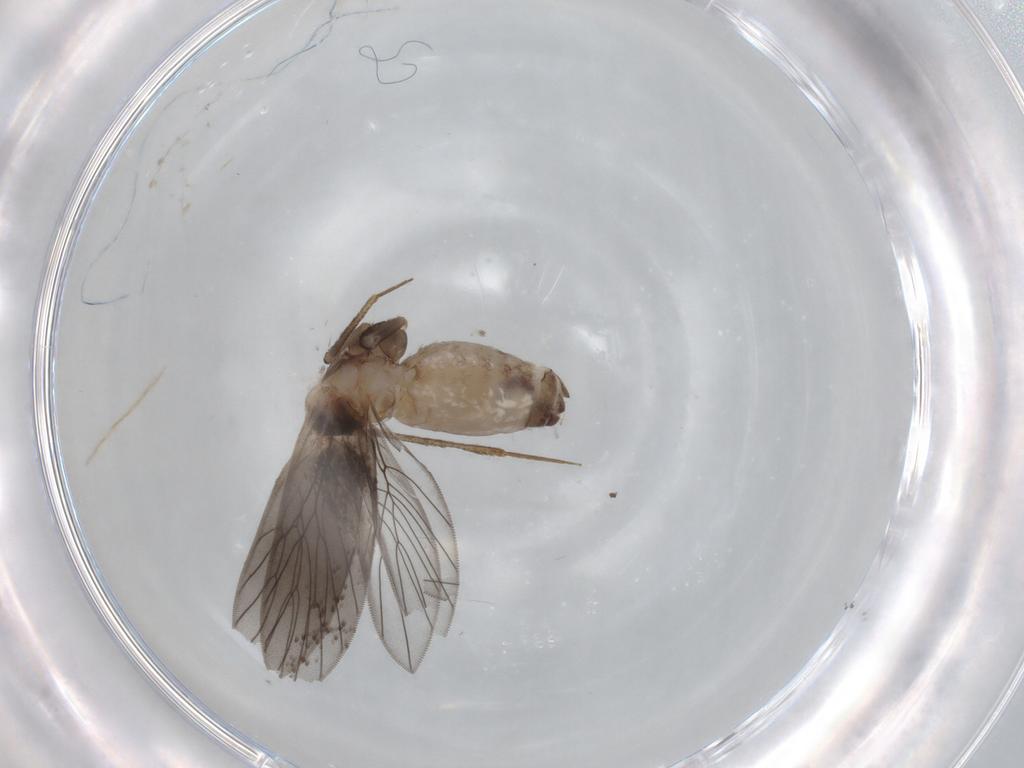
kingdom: Animalia
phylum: Arthropoda
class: Insecta
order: Psocodea
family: Lepidopsocidae
